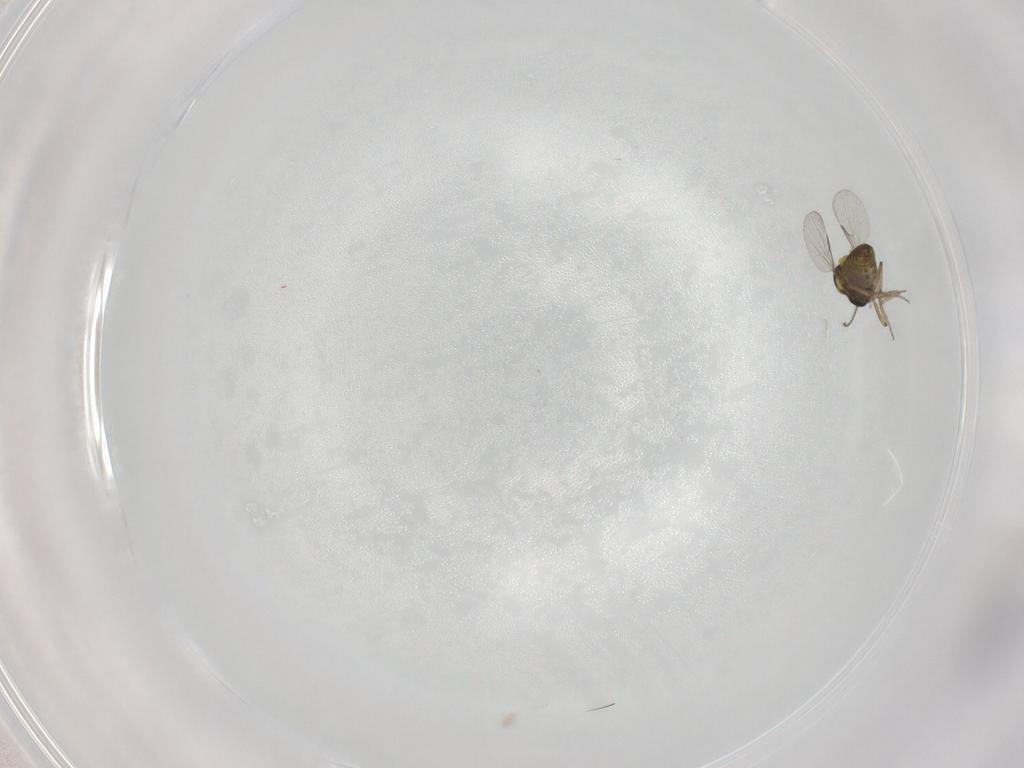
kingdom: Animalia
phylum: Arthropoda
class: Insecta
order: Diptera
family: Ceratopogonidae
